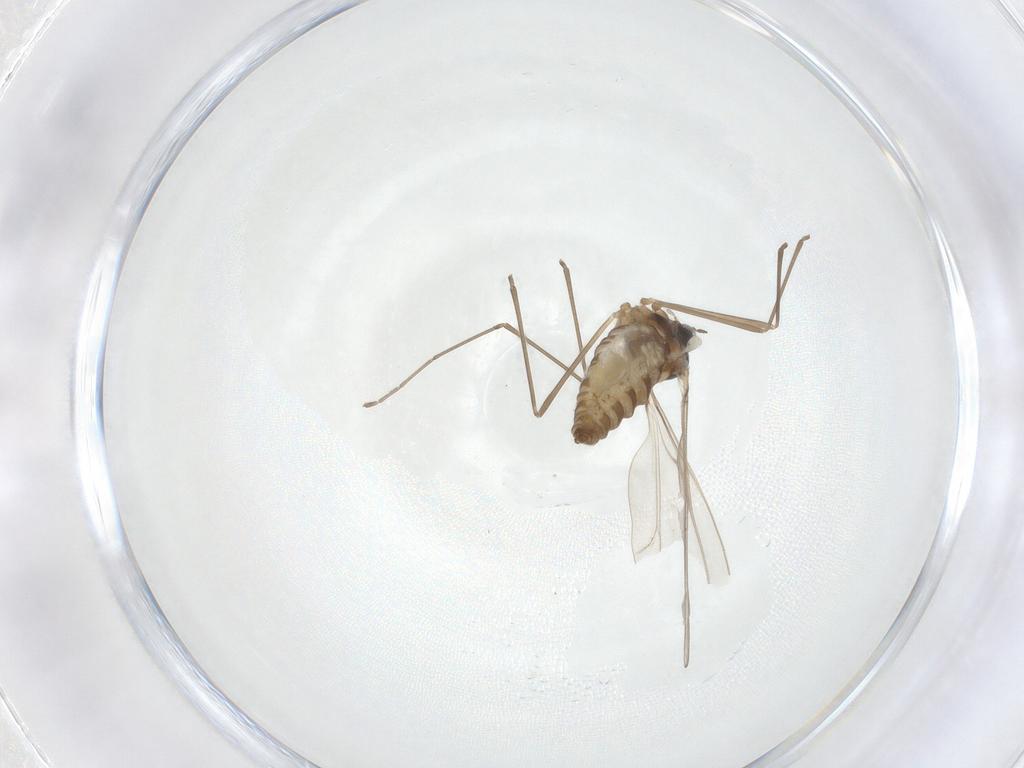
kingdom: Animalia
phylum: Arthropoda
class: Insecta
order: Diptera
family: Cecidomyiidae
